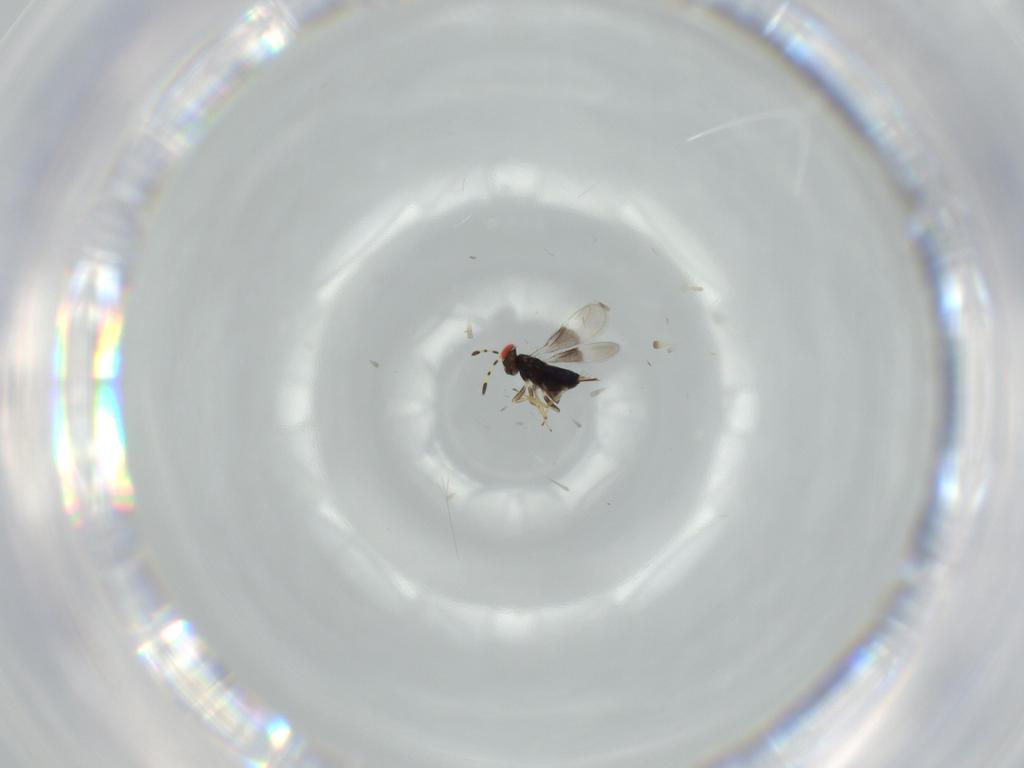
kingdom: Animalia
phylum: Arthropoda
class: Insecta
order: Hymenoptera
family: Azotidae
